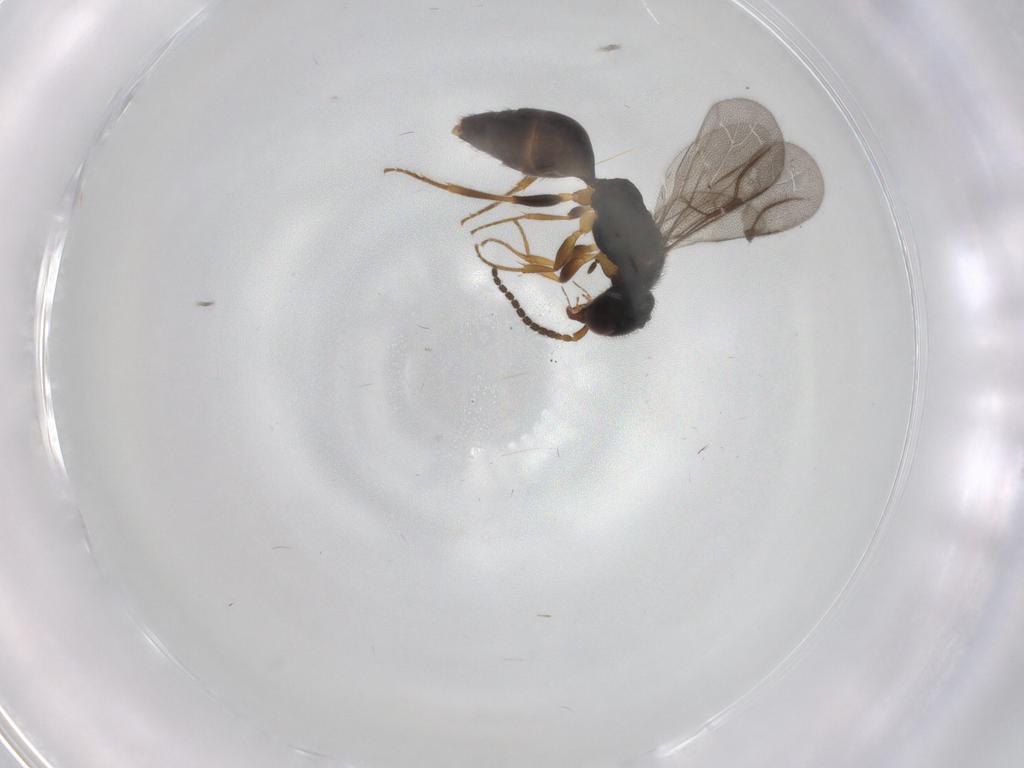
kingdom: Animalia
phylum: Arthropoda
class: Insecta
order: Hymenoptera
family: Bethylidae
